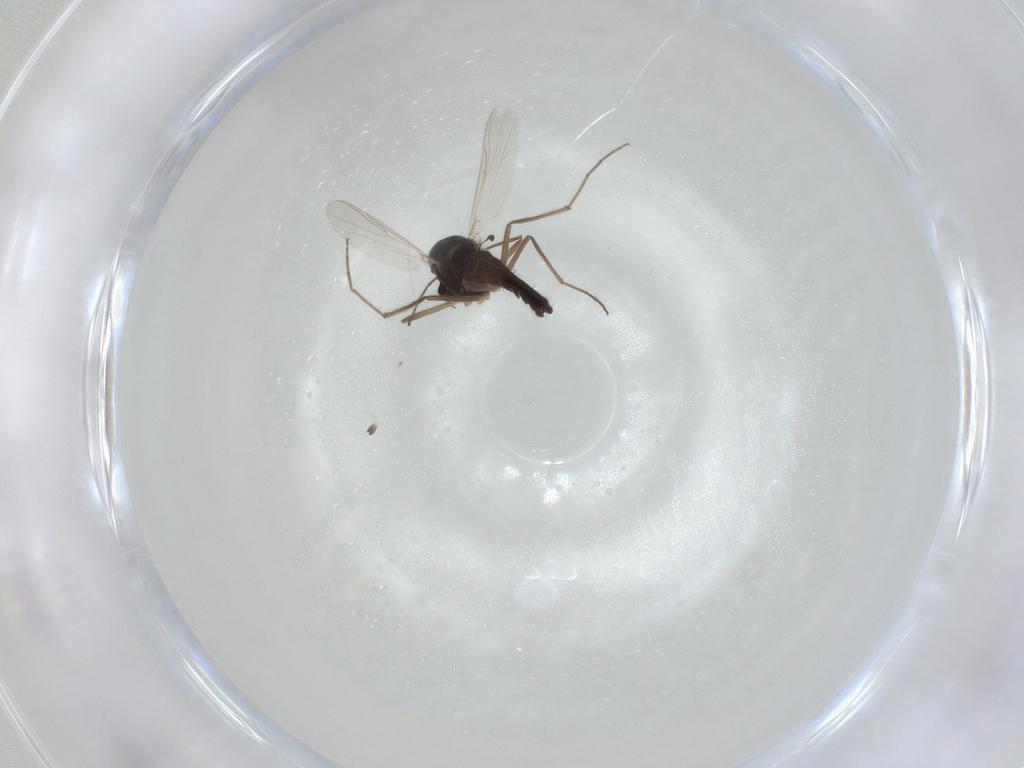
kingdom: Animalia
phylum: Arthropoda
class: Insecta
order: Diptera
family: Chironomidae
